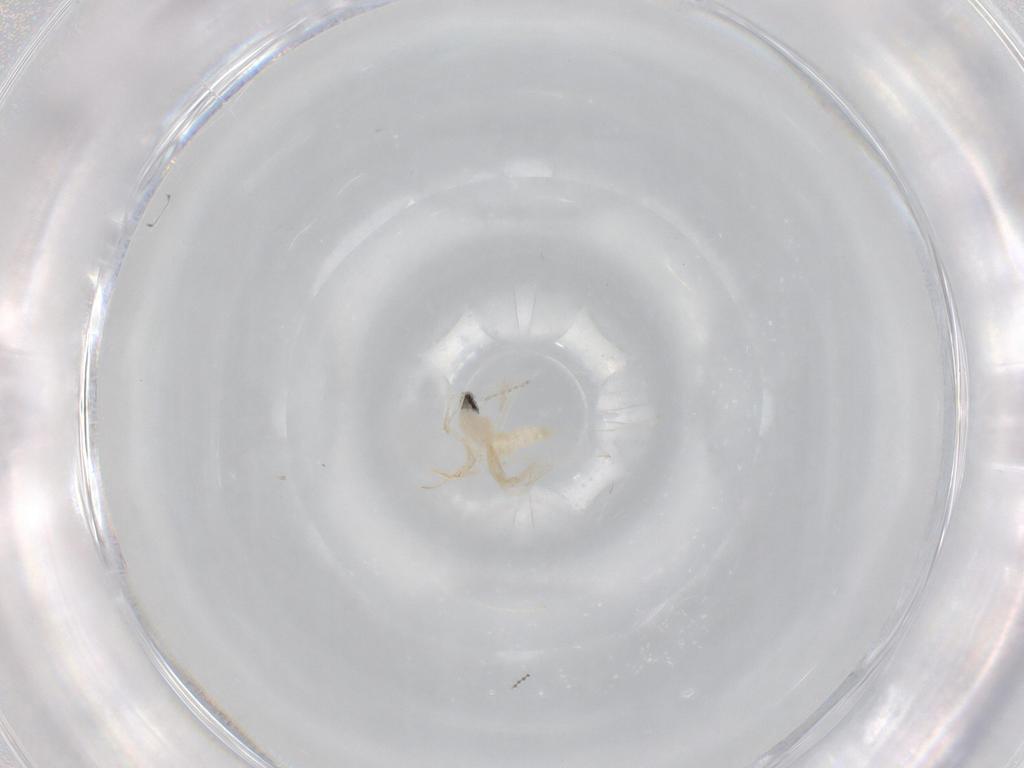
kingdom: Animalia
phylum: Arthropoda
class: Insecta
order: Diptera
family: Cecidomyiidae
